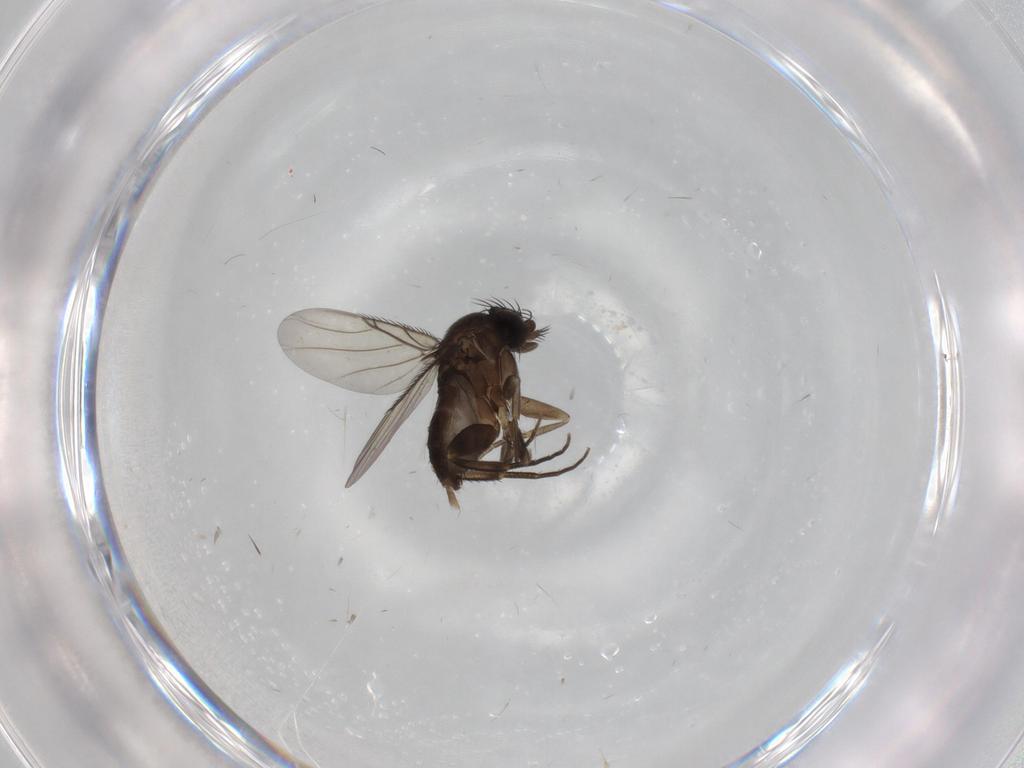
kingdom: Animalia
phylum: Arthropoda
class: Insecta
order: Diptera
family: Phoridae
